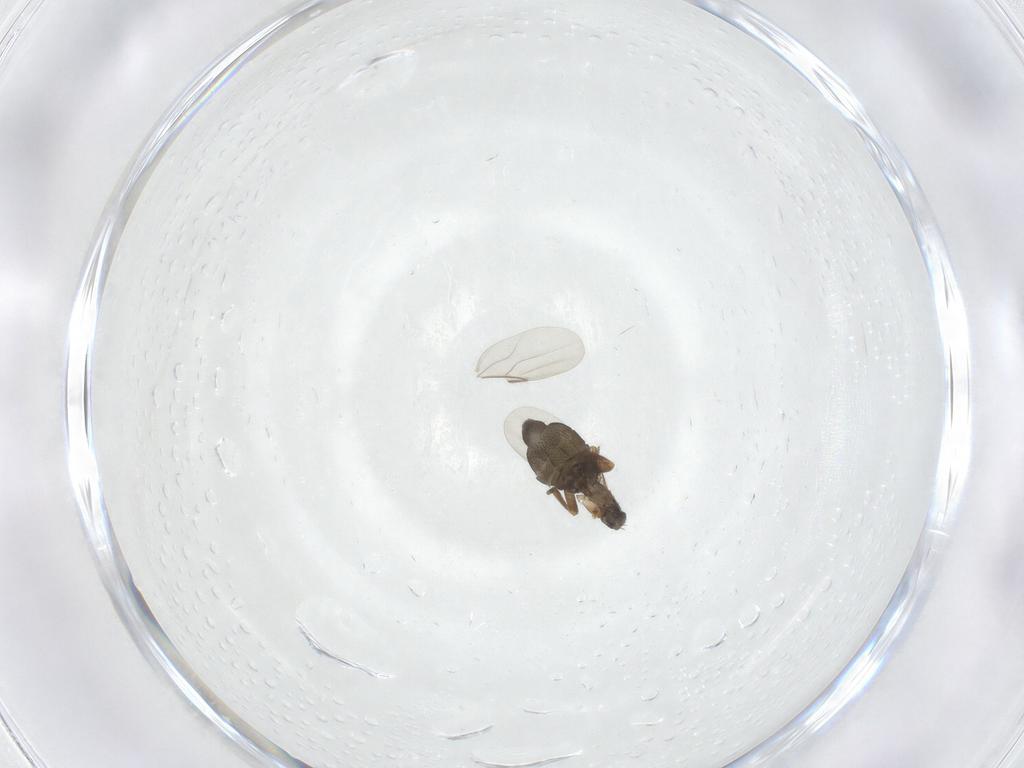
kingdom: Animalia
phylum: Arthropoda
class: Insecta
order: Diptera
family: Phoridae
